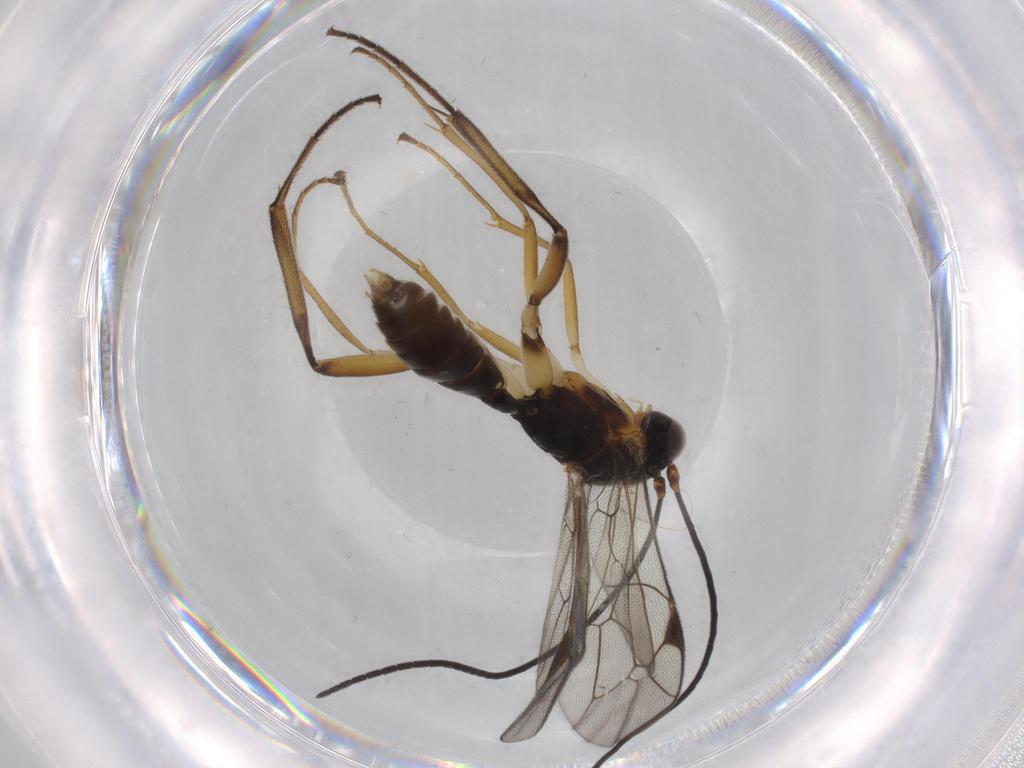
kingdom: Animalia
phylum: Arthropoda
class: Insecta
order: Hymenoptera
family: Platygastridae
